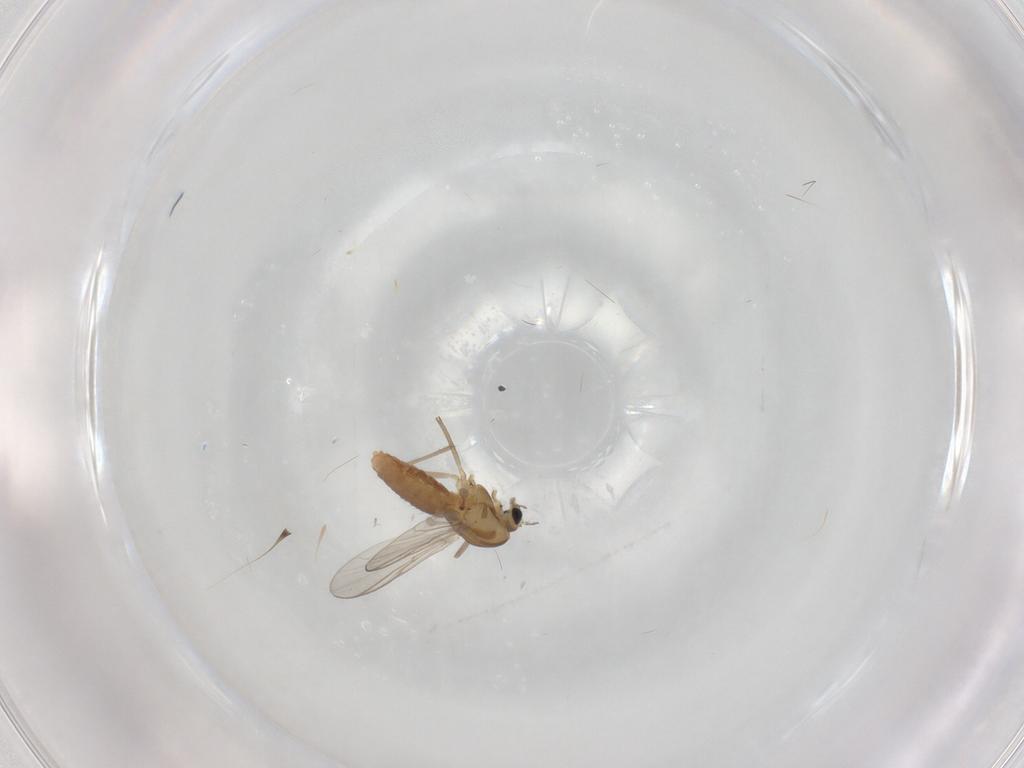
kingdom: Animalia
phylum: Arthropoda
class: Insecta
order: Diptera
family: Chironomidae
